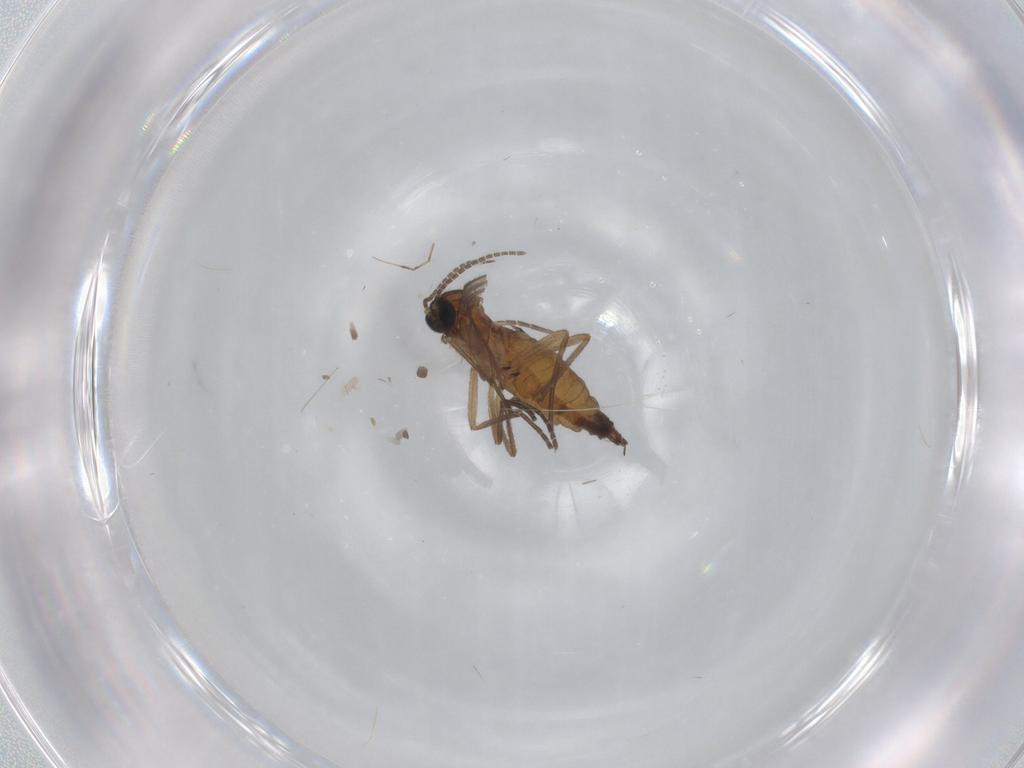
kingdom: Animalia
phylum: Arthropoda
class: Insecta
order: Diptera
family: Sciaridae
